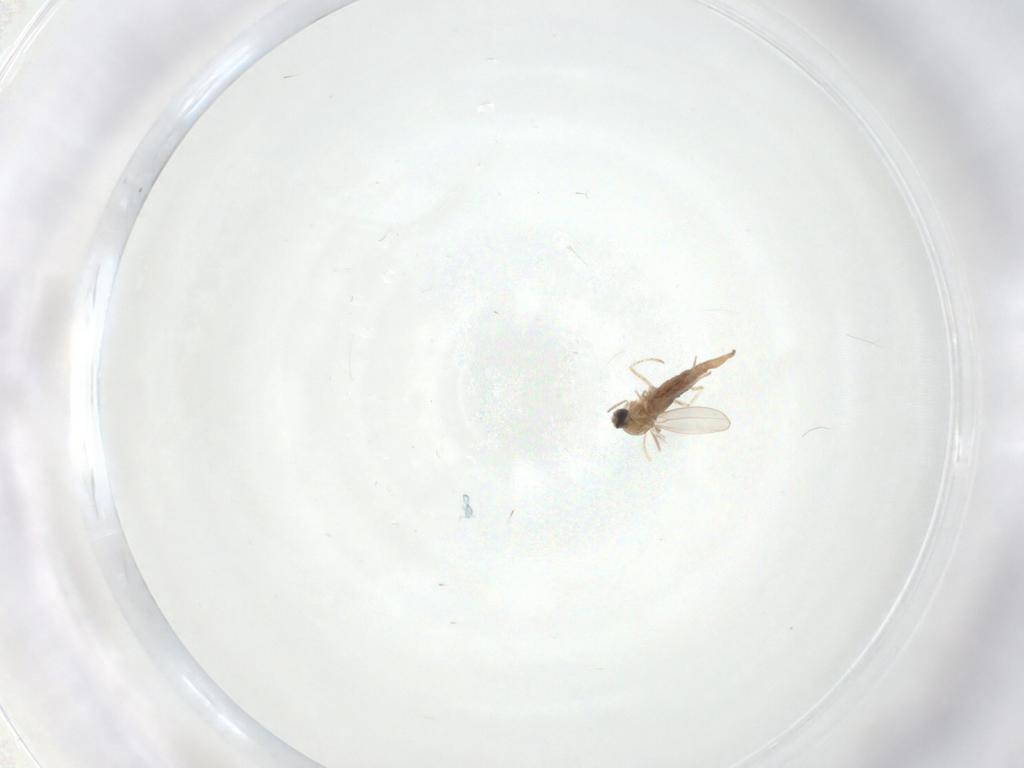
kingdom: Animalia
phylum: Arthropoda
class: Insecta
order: Diptera
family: Cecidomyiidae
